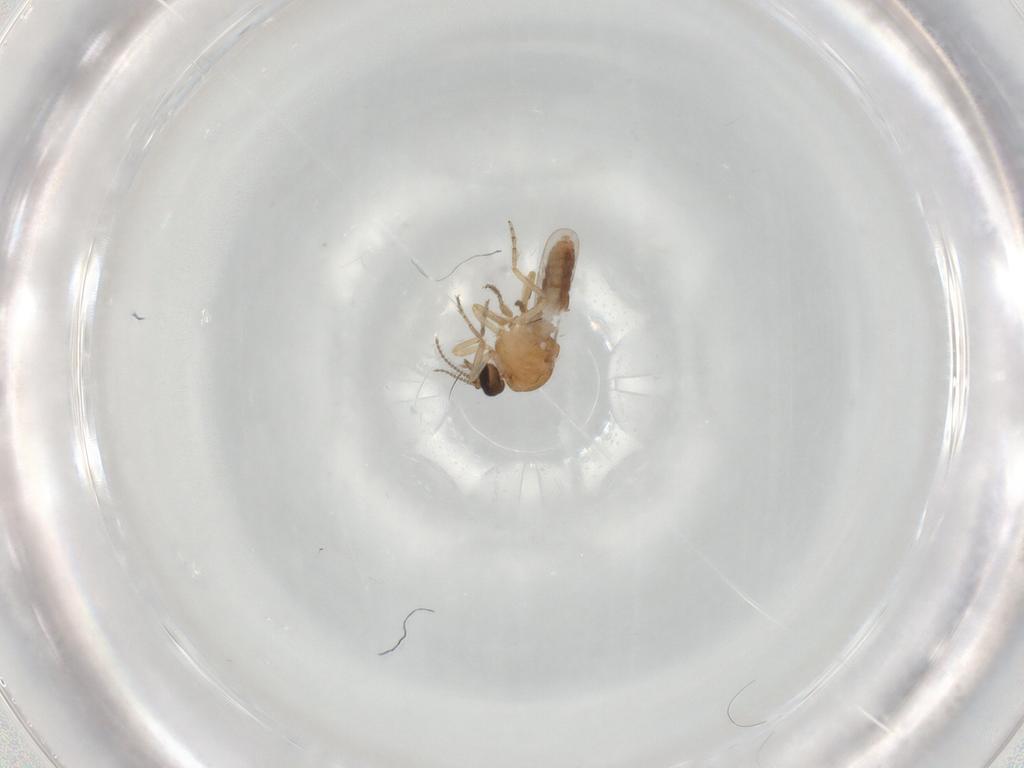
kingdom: Animalia
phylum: Arthropoda
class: Insecta
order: Diptera
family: Ceratopogonidae
